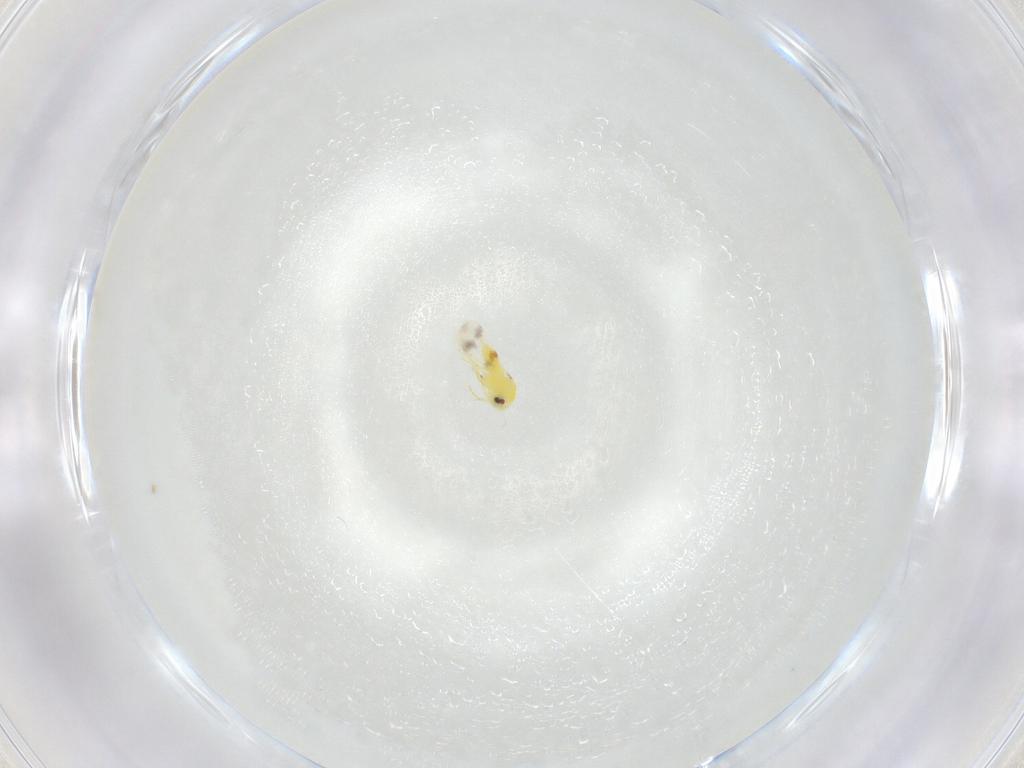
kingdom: Animalia
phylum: Arthropoda
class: Insecta
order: Hemiptera
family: Aleyrodidae
